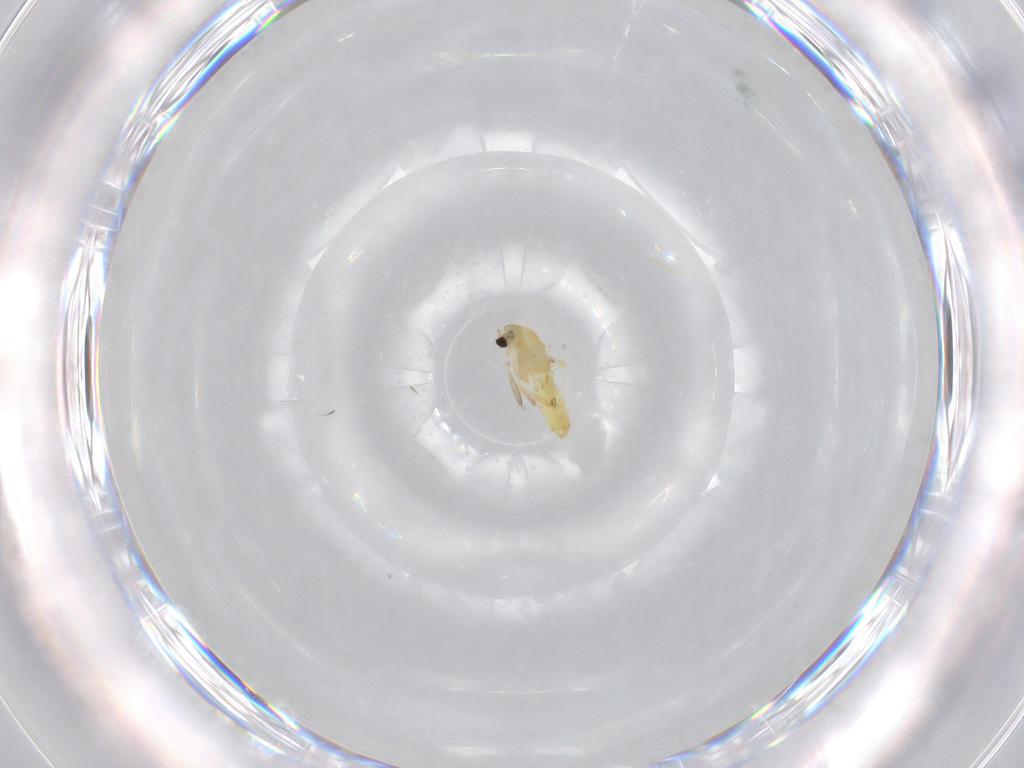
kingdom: Animalia
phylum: Arthropoda
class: Insecta
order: Diptera
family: Chironomidae
